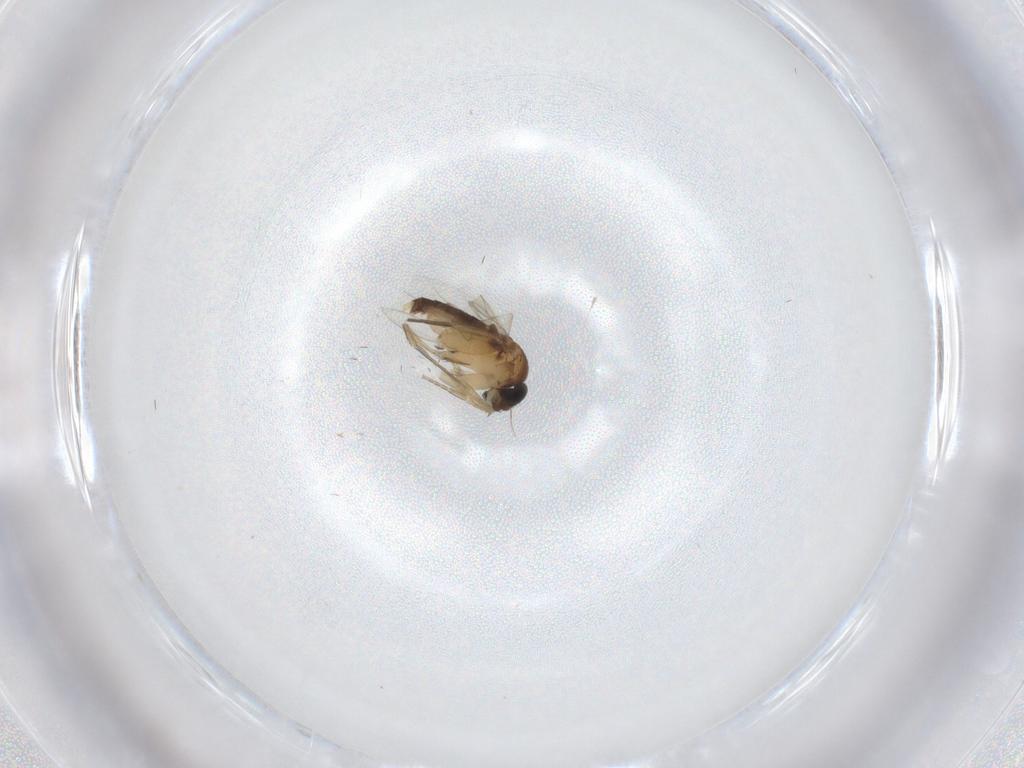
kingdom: Animalia
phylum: Arthropoda
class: Insecta
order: Diptera
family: Phoridae
